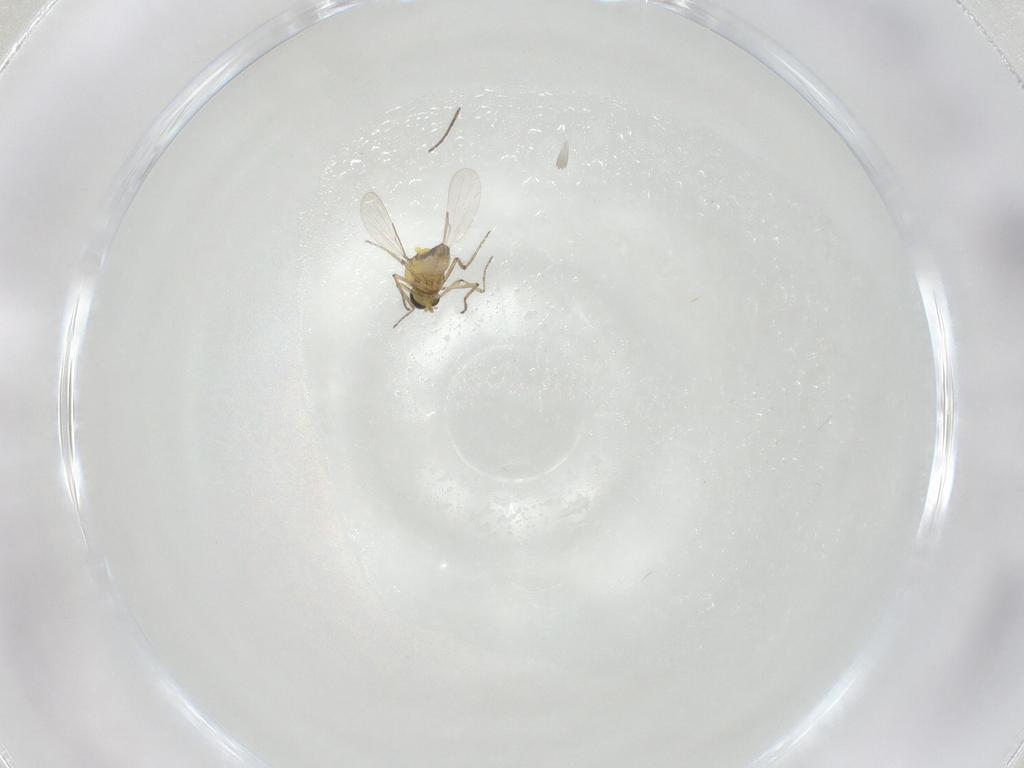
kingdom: Animalia
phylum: Arthropoda
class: Insecta
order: Diptera
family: Ceratopogonidae
